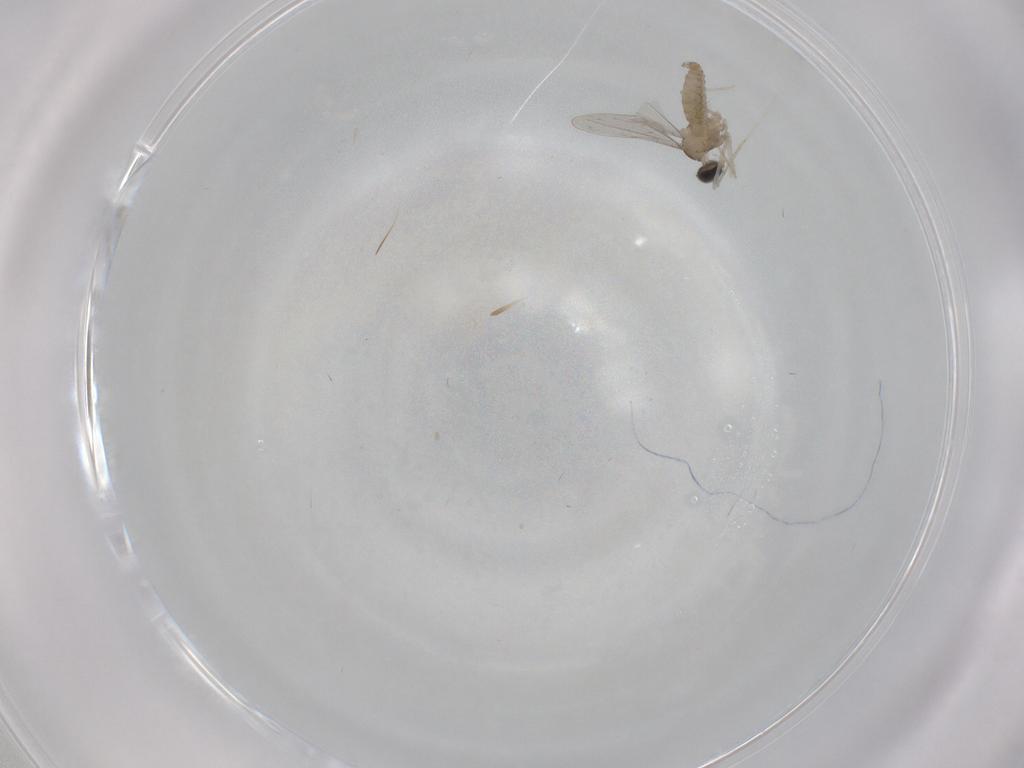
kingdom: Animalia
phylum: Arthropoda
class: Insecta
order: Diptera
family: Cecidomyiidae
